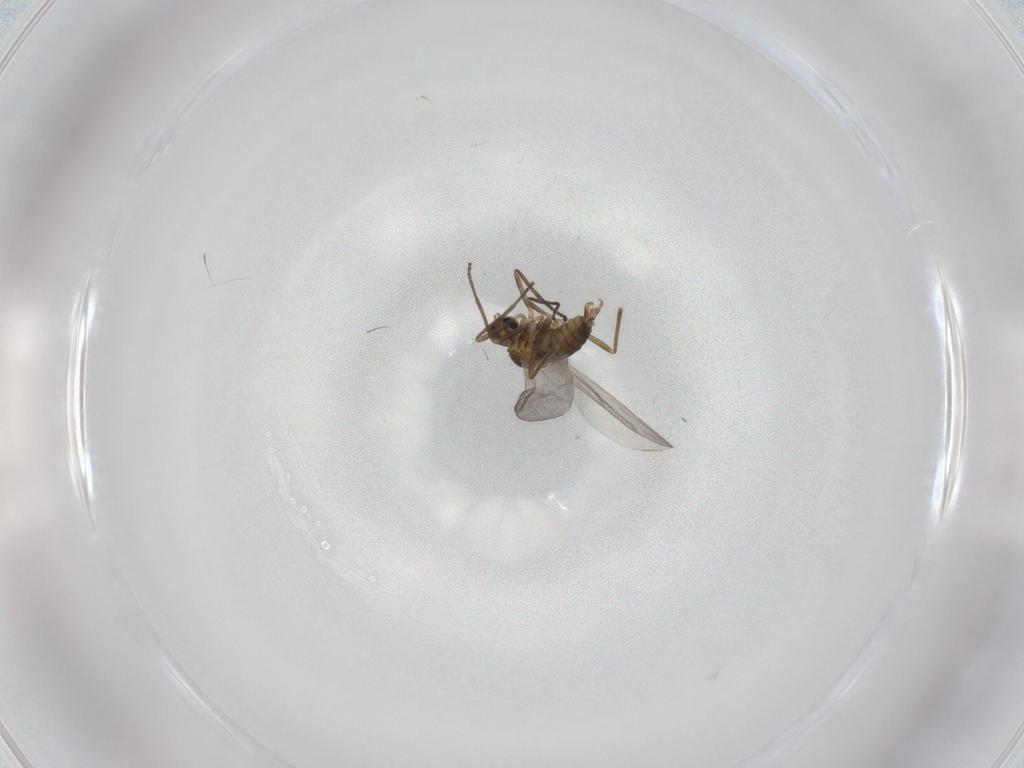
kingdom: Animalia
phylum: Arthropoda
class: Insecta
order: Diptera
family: Cecidomyiidae
